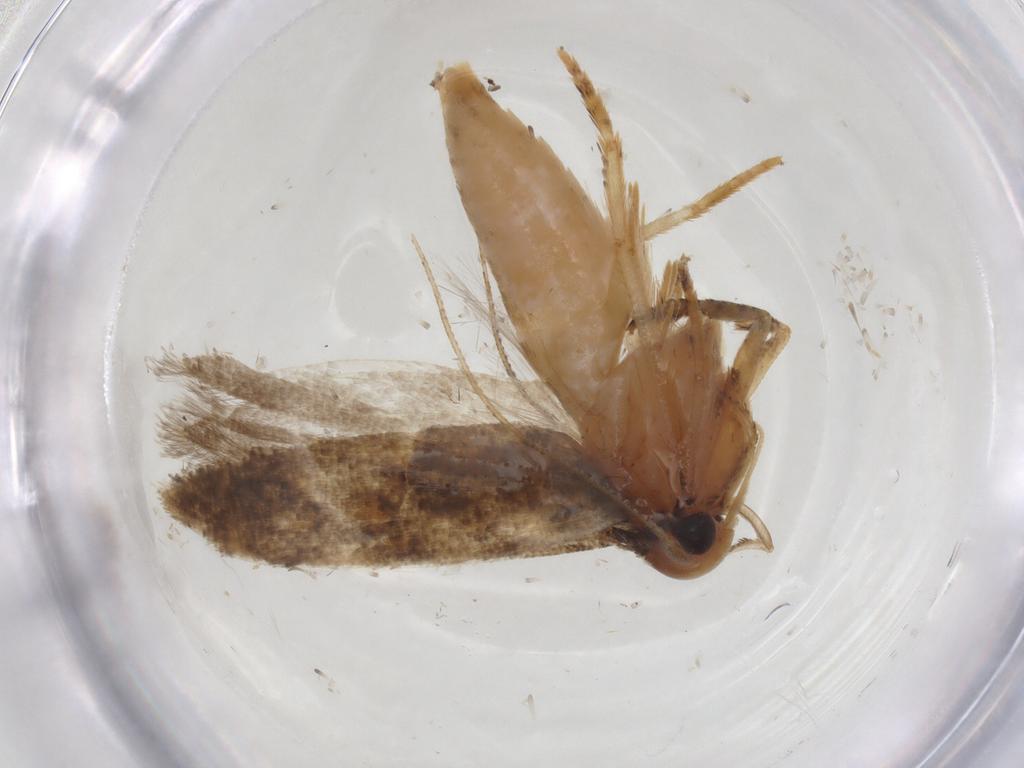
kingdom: Animalia
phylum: Arthropoda
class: Insecta
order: Lepidoptera
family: Gelechiidae
